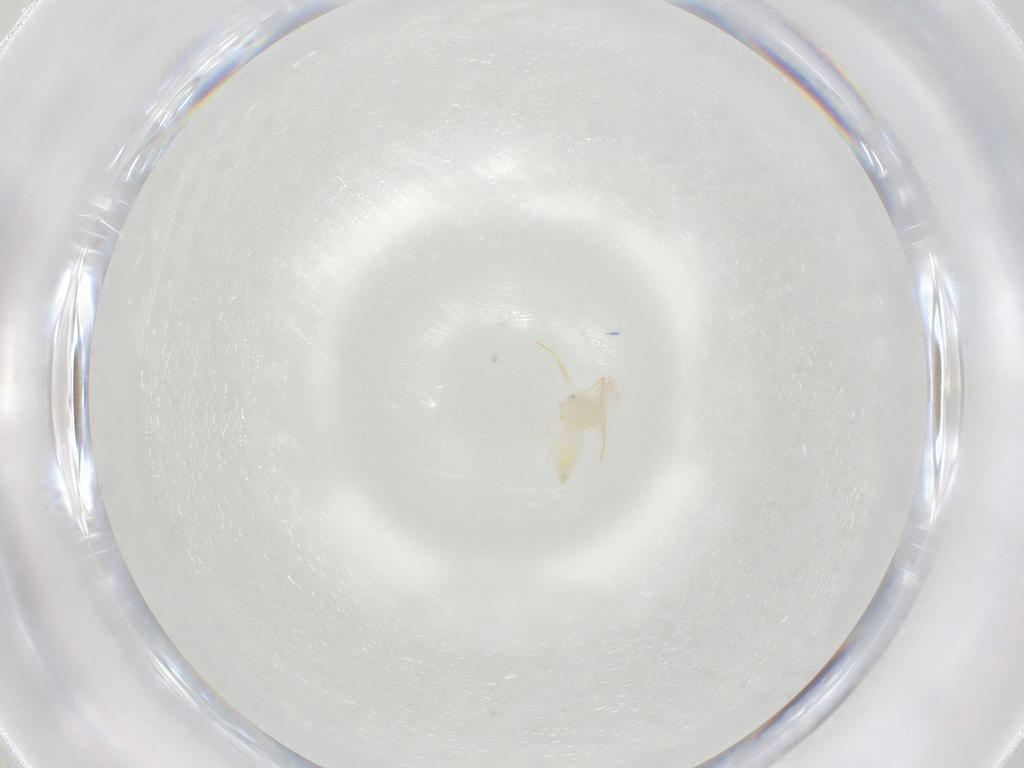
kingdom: Animalia
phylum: Arthropoda
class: Insecta
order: Hemiptera
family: Aleyrodidae
